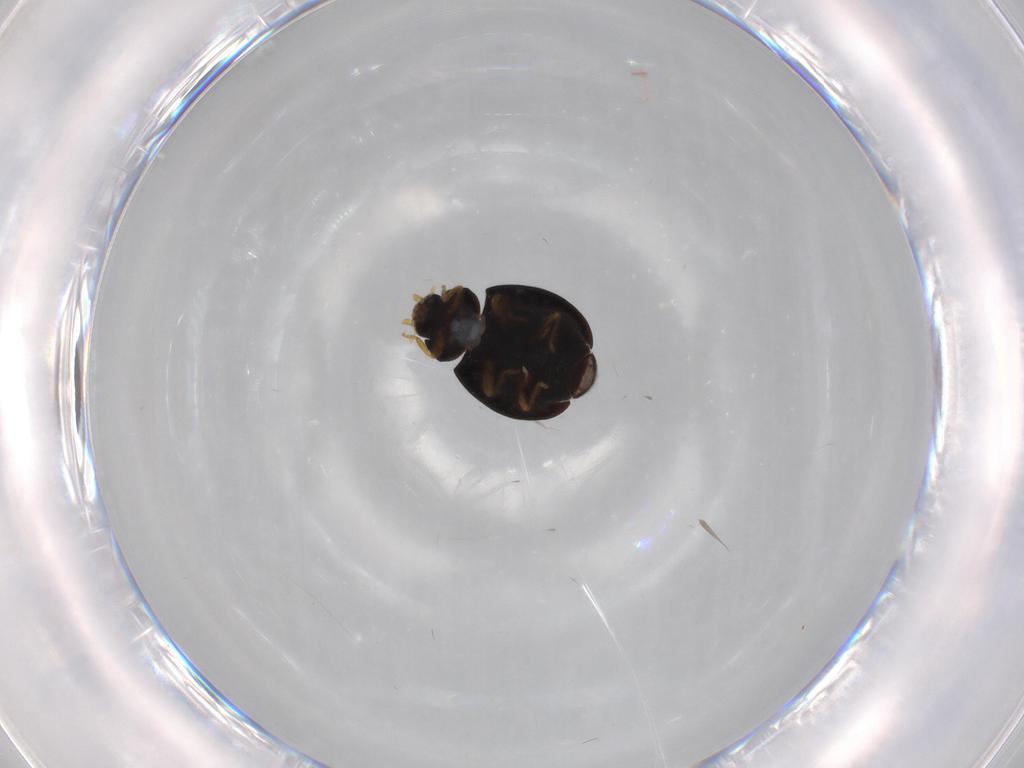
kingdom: Animalia
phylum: Arthropoda
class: Insecta
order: Coleoptera
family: Coccinellidae
